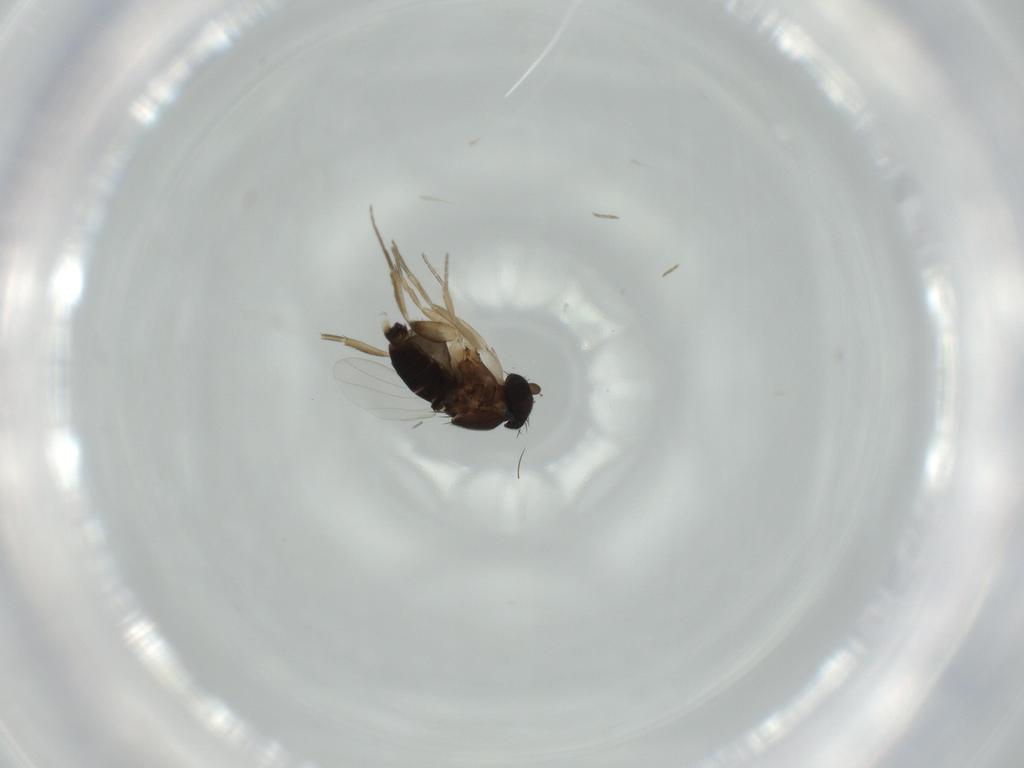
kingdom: Animalia
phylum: Arthropoda
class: Insecta
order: Diptera
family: Phoridae
